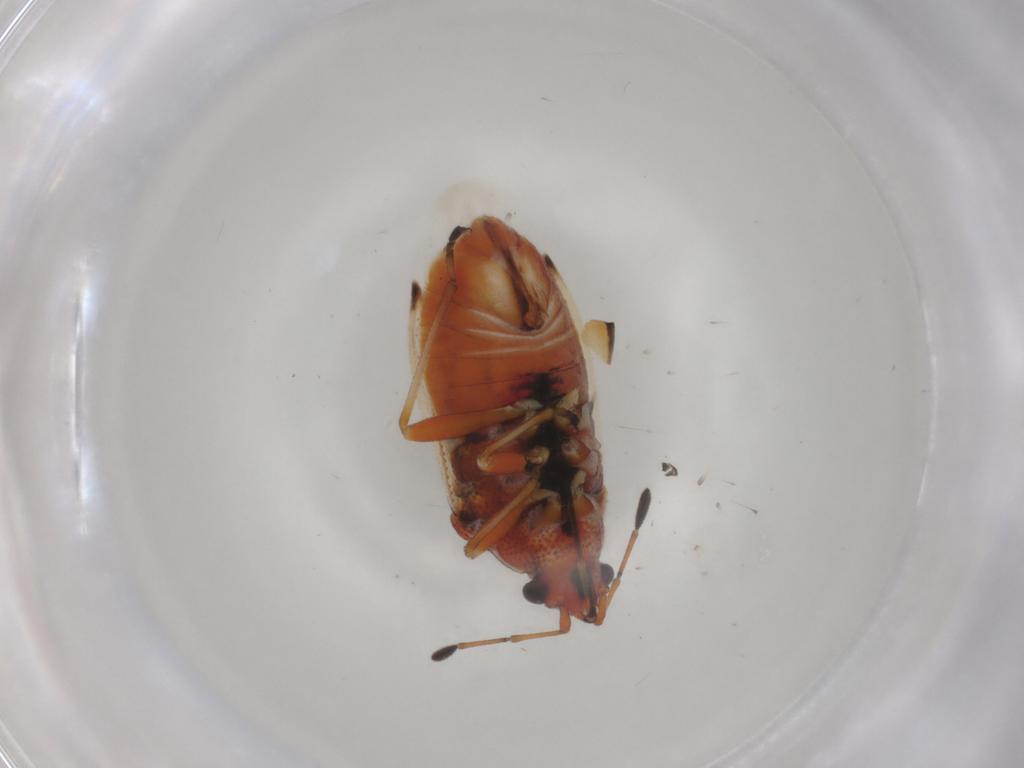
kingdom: Animalia
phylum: Arthropoda
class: Insecta
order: Hemiptera
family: Lygaeidae
